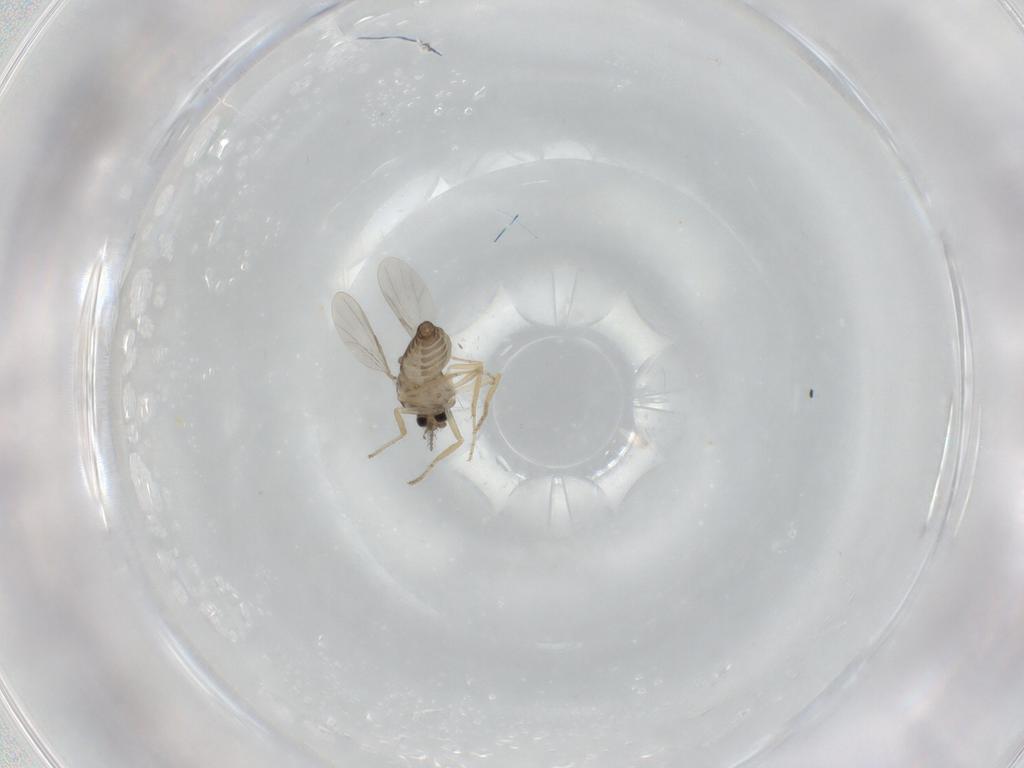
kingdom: Animalia
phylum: Arthropoda
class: Insecta
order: Diptera
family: Ceratopogonidae
